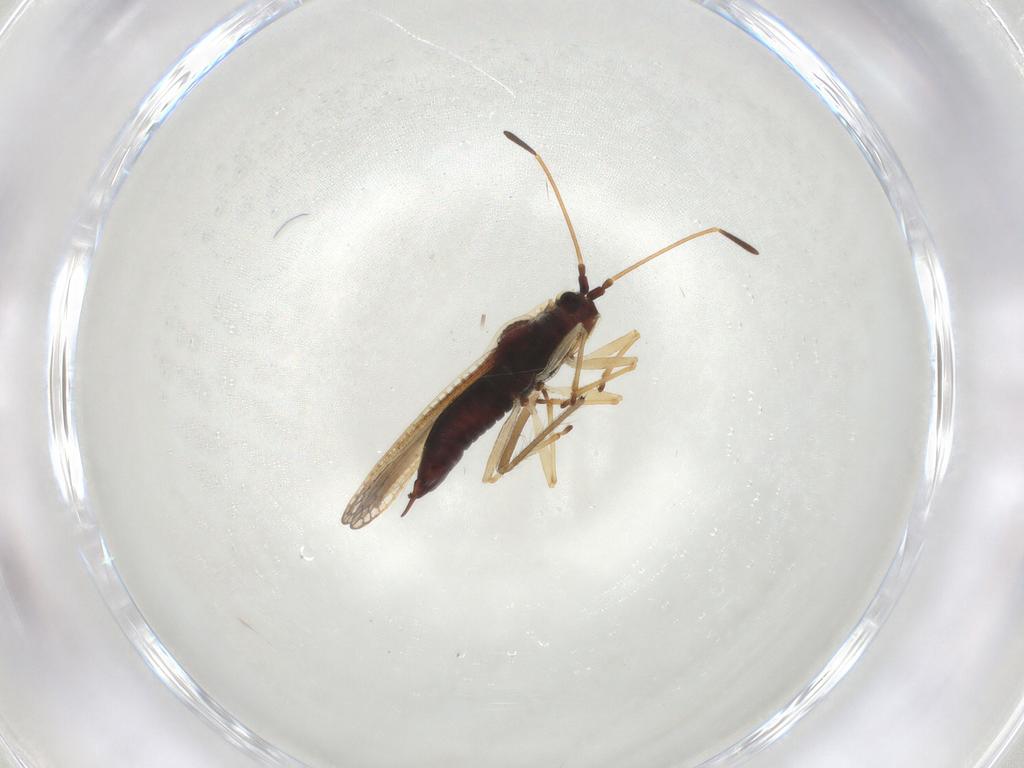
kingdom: Animalia
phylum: Arthropoda
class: Insecta
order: Hemiptera
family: Tingidae
